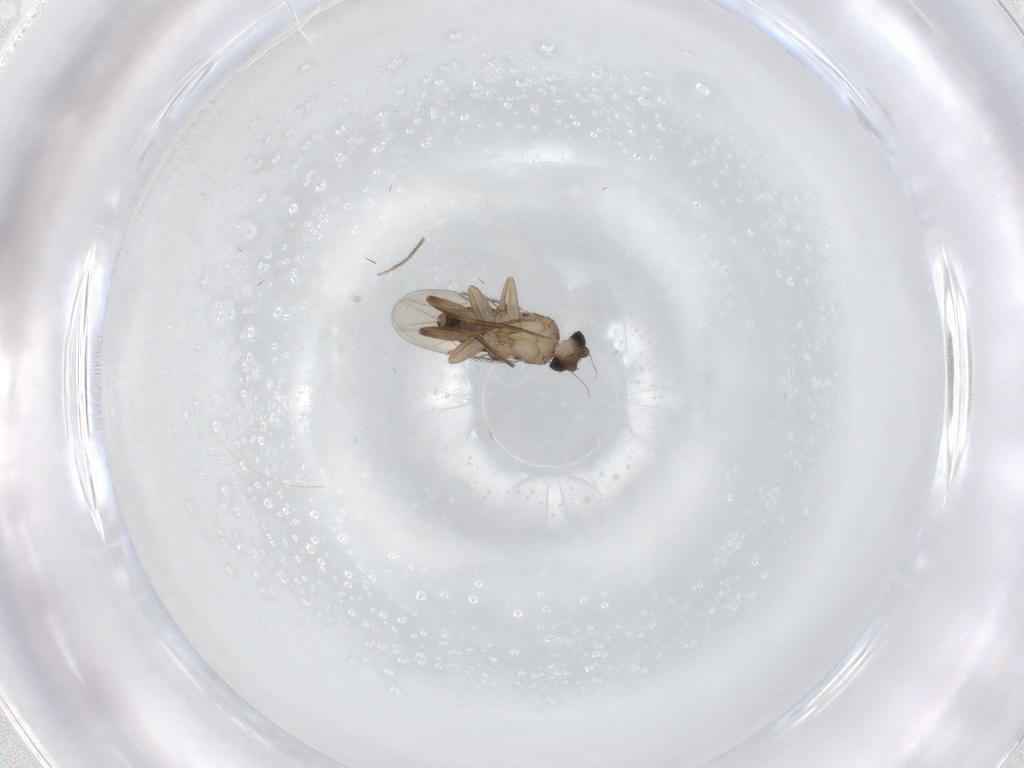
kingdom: Animalia
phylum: Arthropoda
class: Insecta
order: Diptera
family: Phoridae
